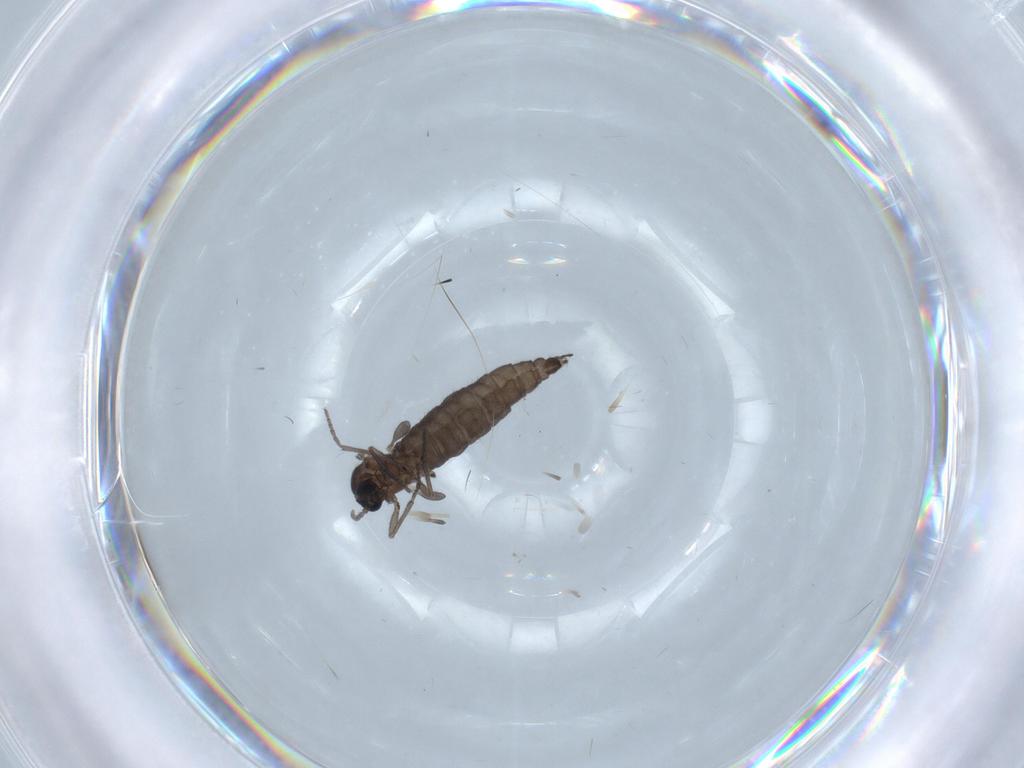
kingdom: Animalia
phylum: Arthropoda
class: Insecta
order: Diptera
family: Sciaridae
